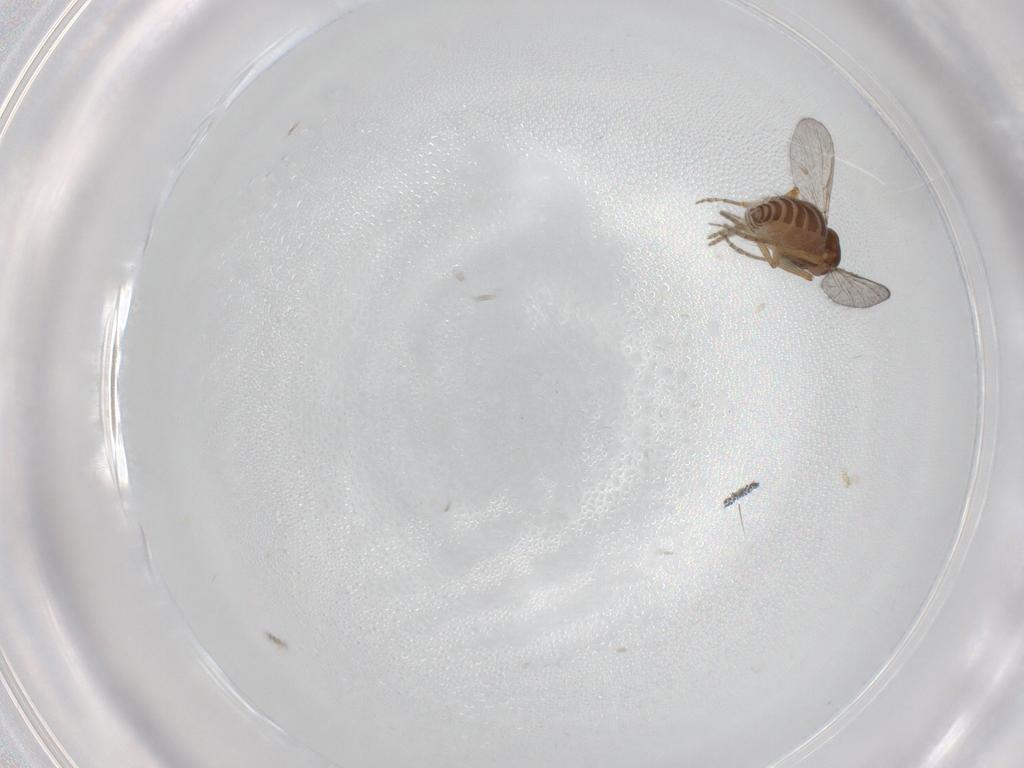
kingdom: Animalia
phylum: Arthropoda
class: Insecta
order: Diptera
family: Ceratopogonidae
